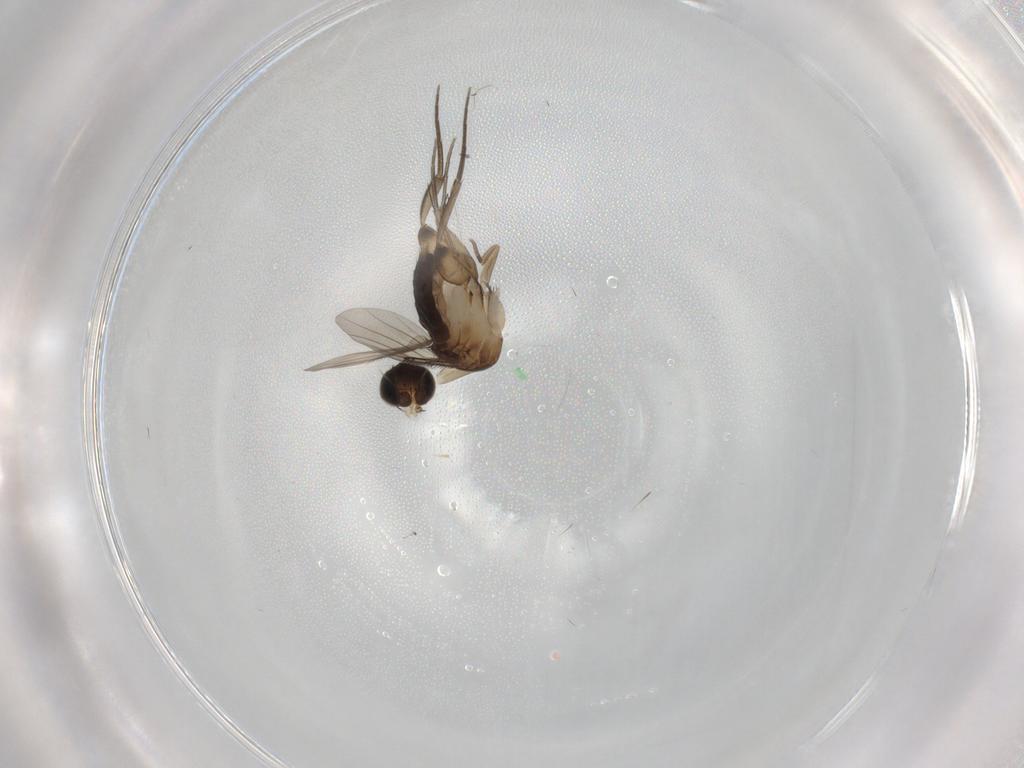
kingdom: Animalia
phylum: Arthropoda
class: Insecta
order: Diptera
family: Phoridae
